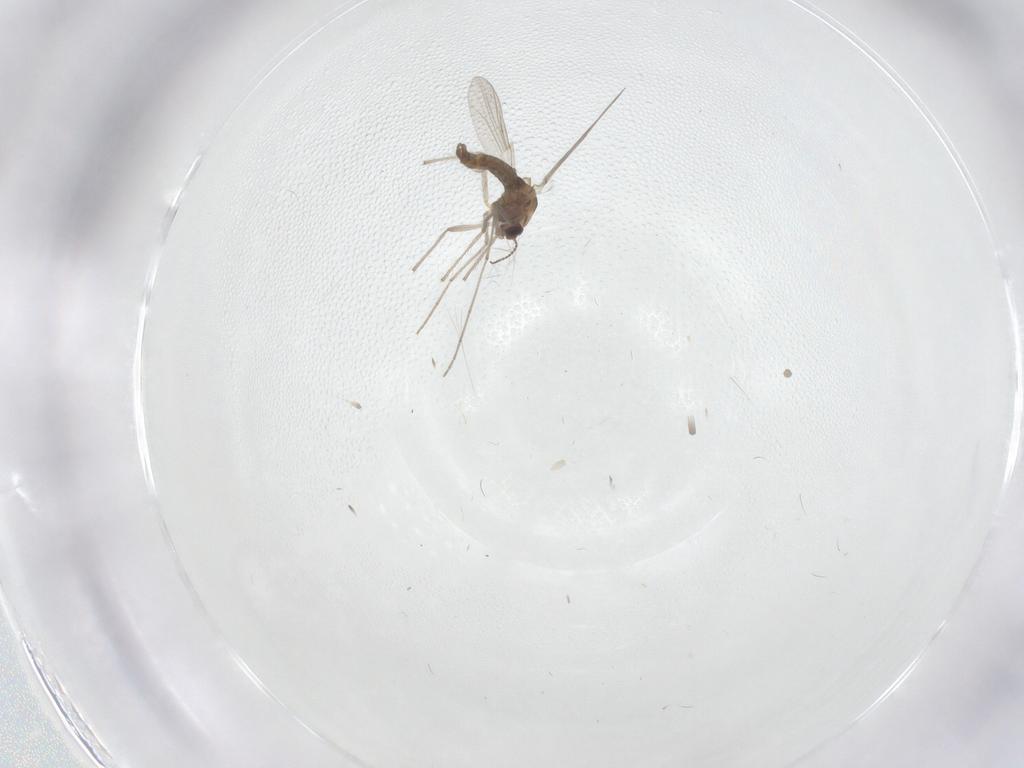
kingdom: Animalia
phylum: Arthropoda
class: Insecta
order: Diptera
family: Chironomidae
